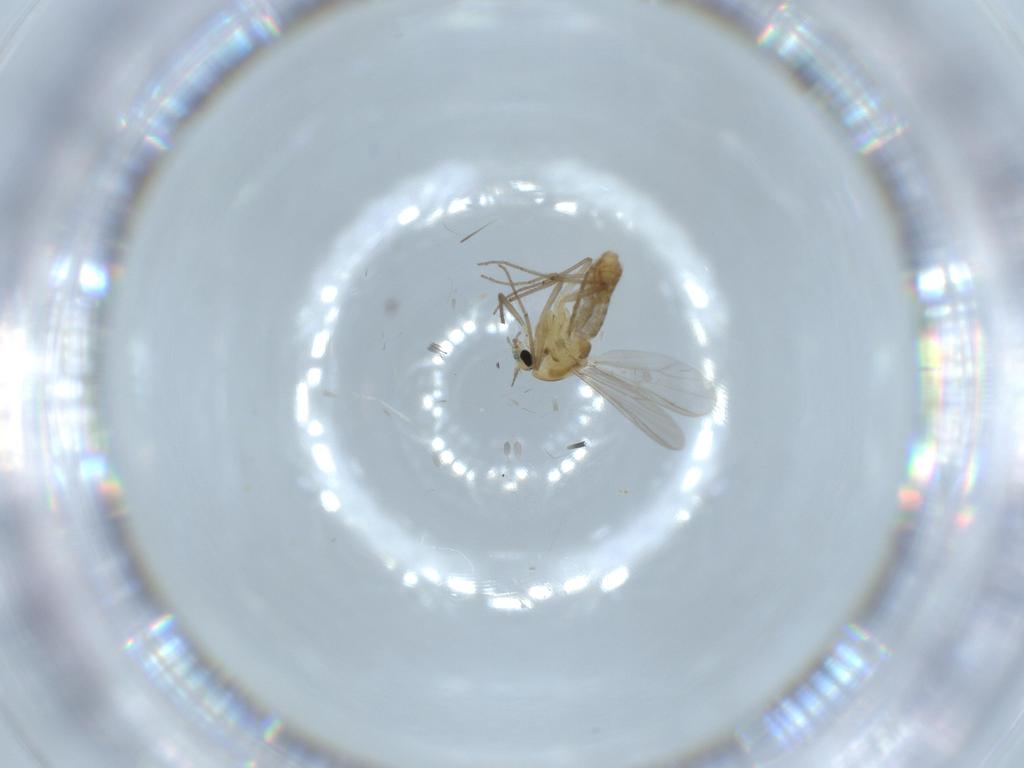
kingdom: Animalia
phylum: Arthropoda
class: Insecta
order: Diptera
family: Chironomidae
